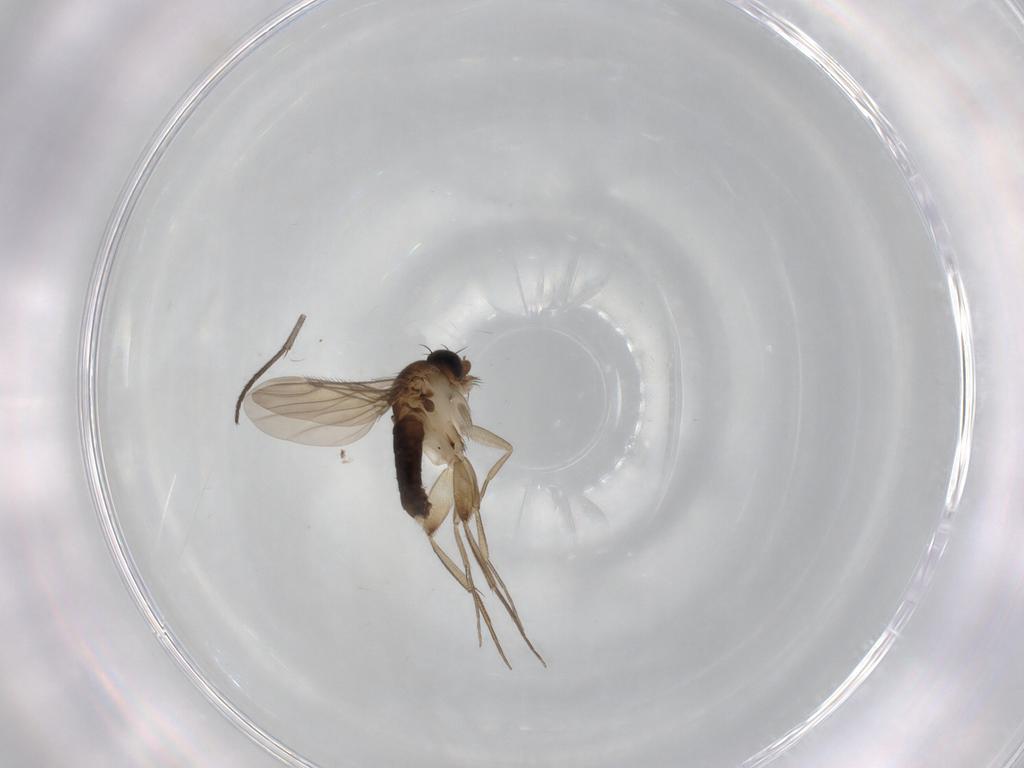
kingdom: Animalia
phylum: Arthropoda
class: Insecta
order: Diptera
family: Phoridae
